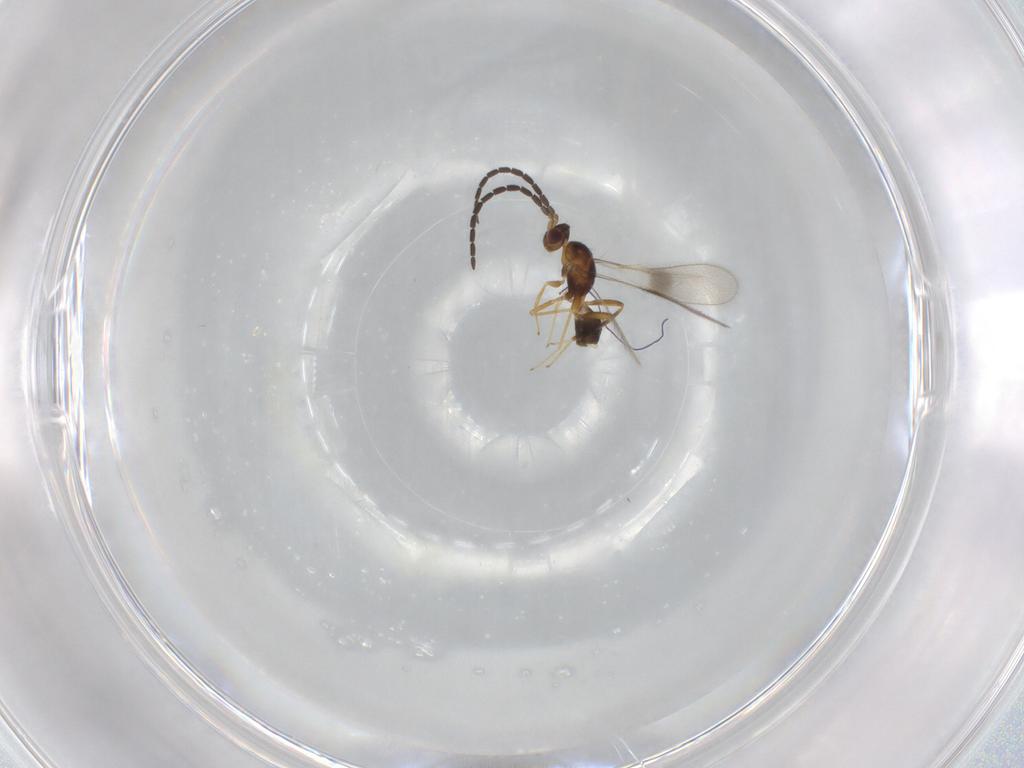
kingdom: Animalia
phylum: Arthropoda
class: Insecta
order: Hymenoptera
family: Mymaridae
